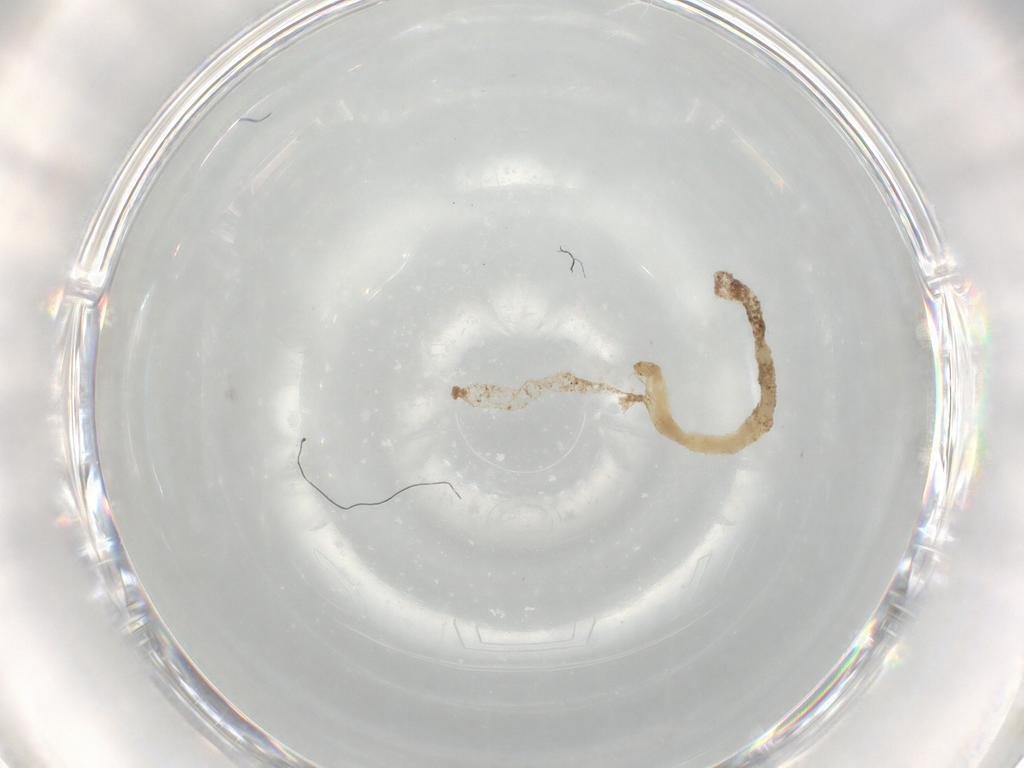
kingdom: Animalia
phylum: Arthropoda
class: Insecta
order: Diptera
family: Chironomidae
